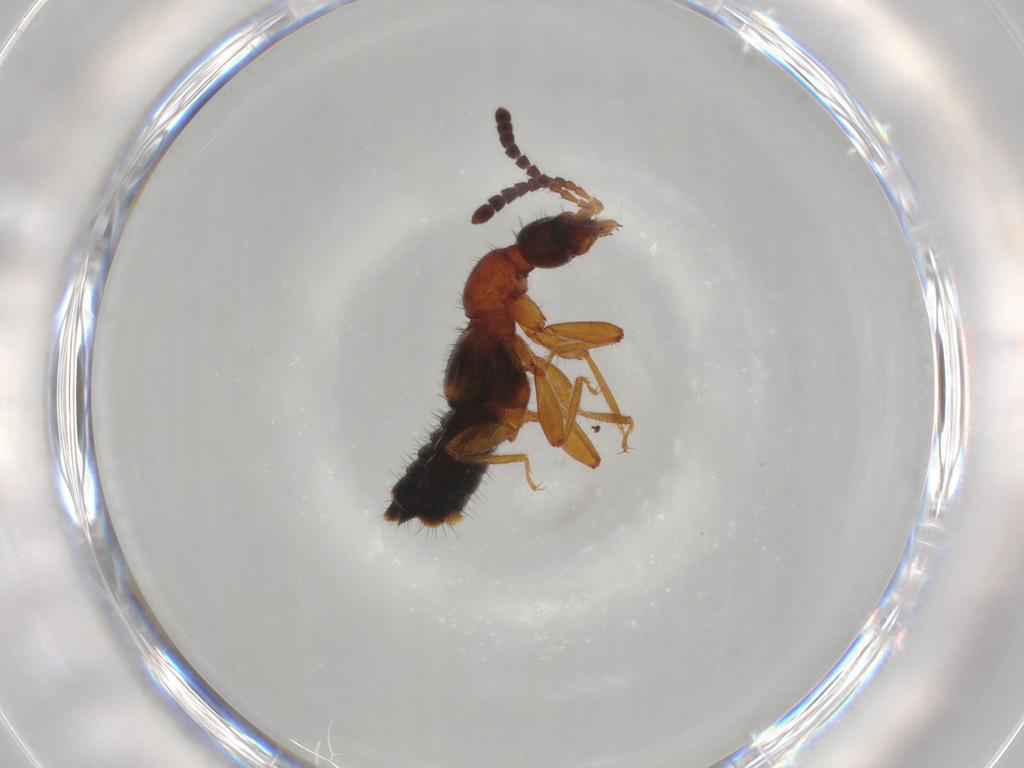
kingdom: Animalia
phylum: Arthropoda
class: Insecta
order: Coleoptera
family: Staphylinidae
